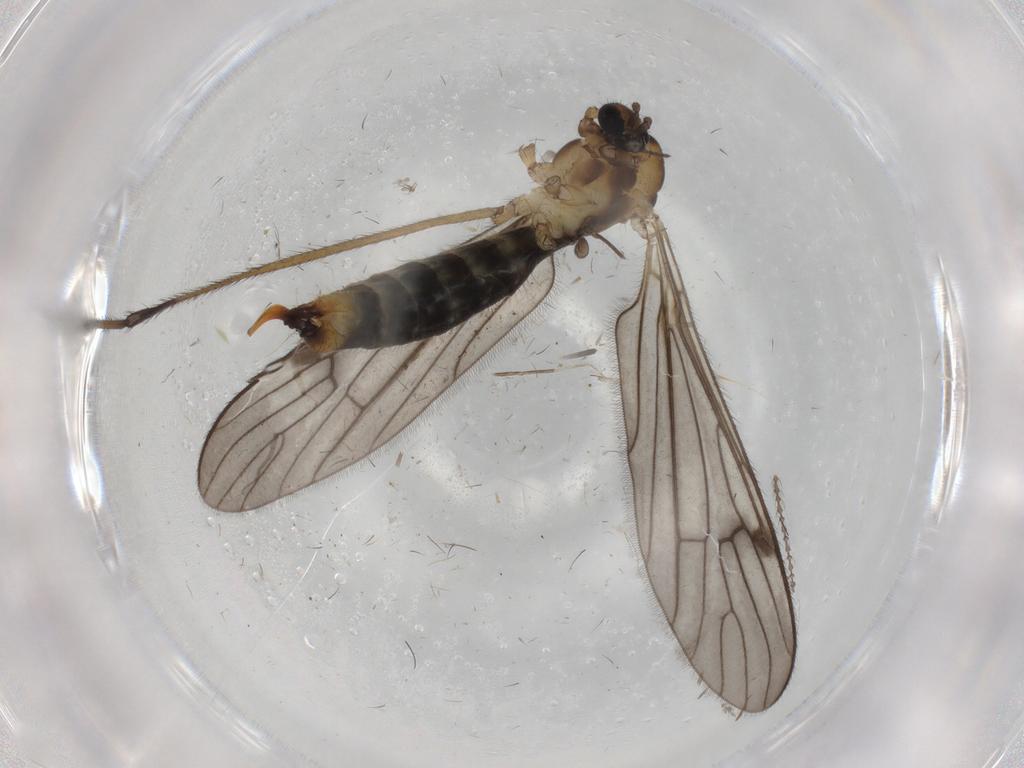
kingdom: Animalia
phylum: Arthropoda
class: Insecta
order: Diptera
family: Limoniidae
